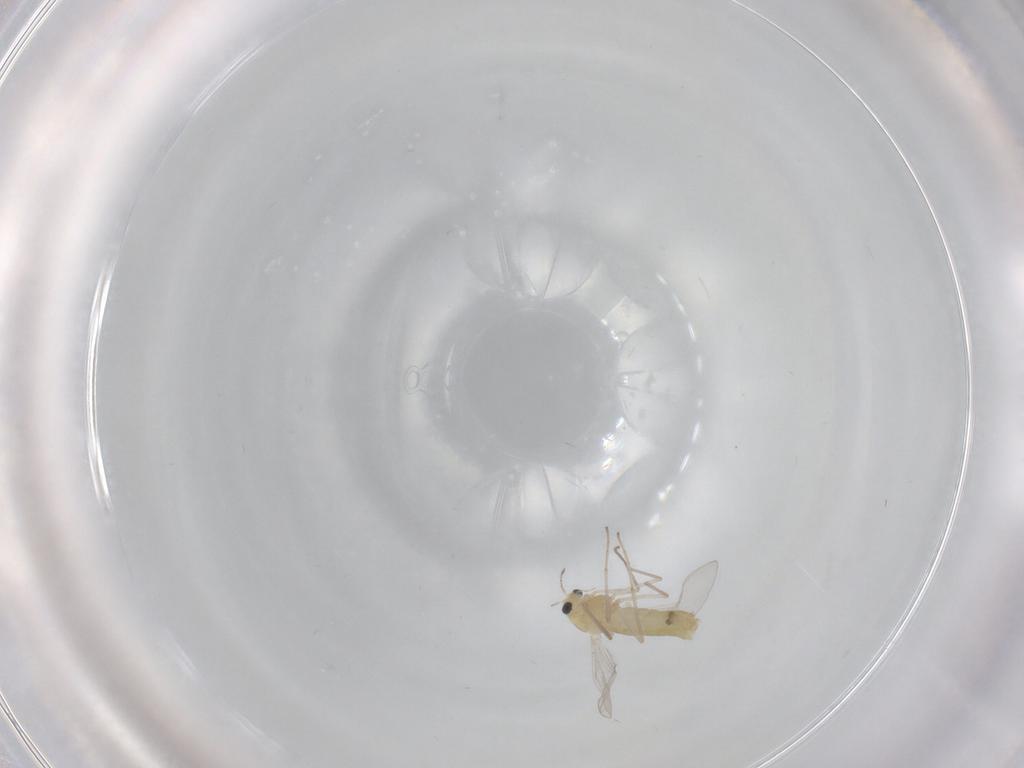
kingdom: Animalia
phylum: Arthropoda
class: Insecta
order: Diptera
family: Chironomidae
